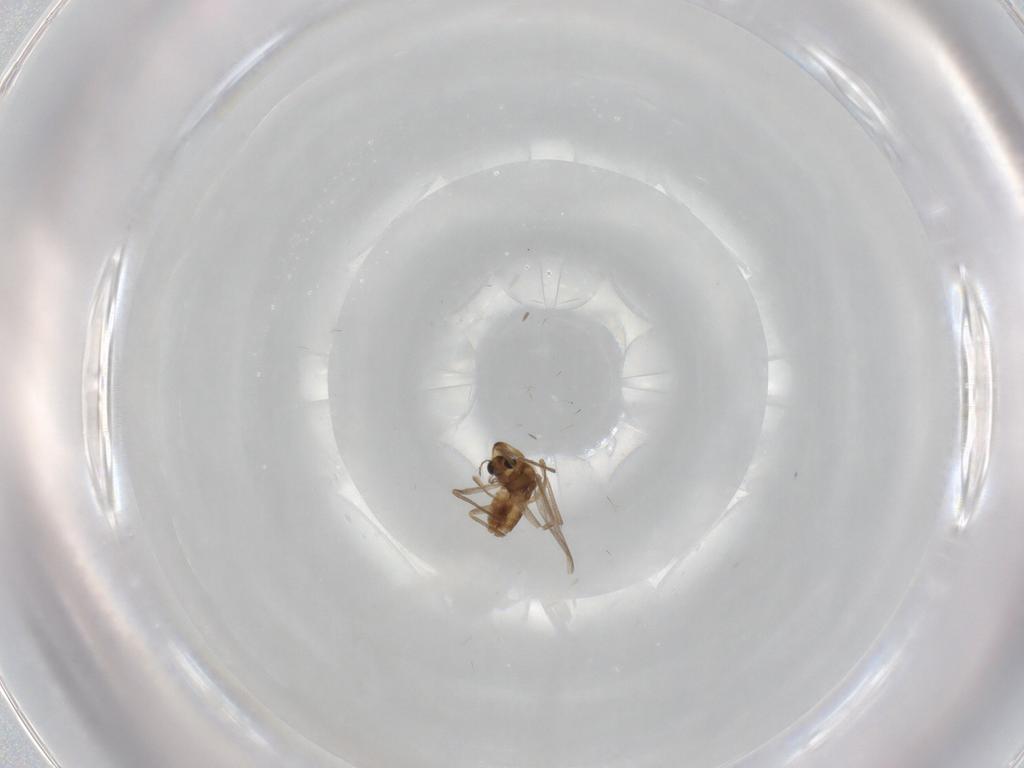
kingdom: Animalia
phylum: Arthropoda
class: Insecta
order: Diptera
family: Chironomidae
